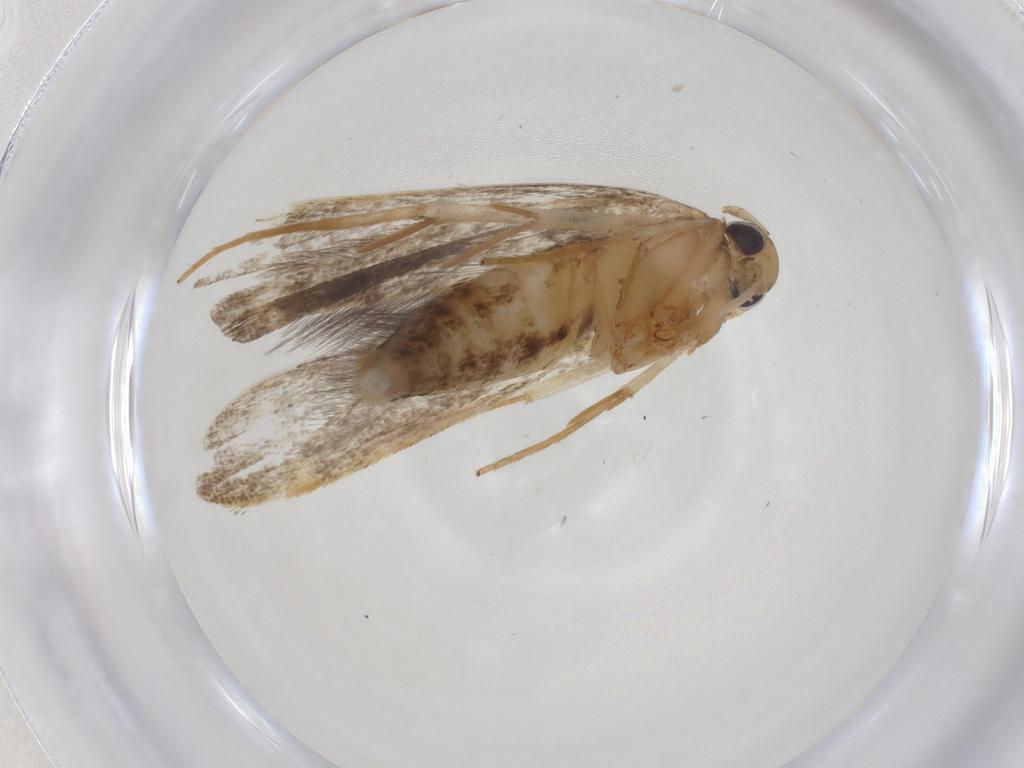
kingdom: Animalia
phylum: Arthropoda
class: Insecta
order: Lepidoptera
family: Lecithoceridae
